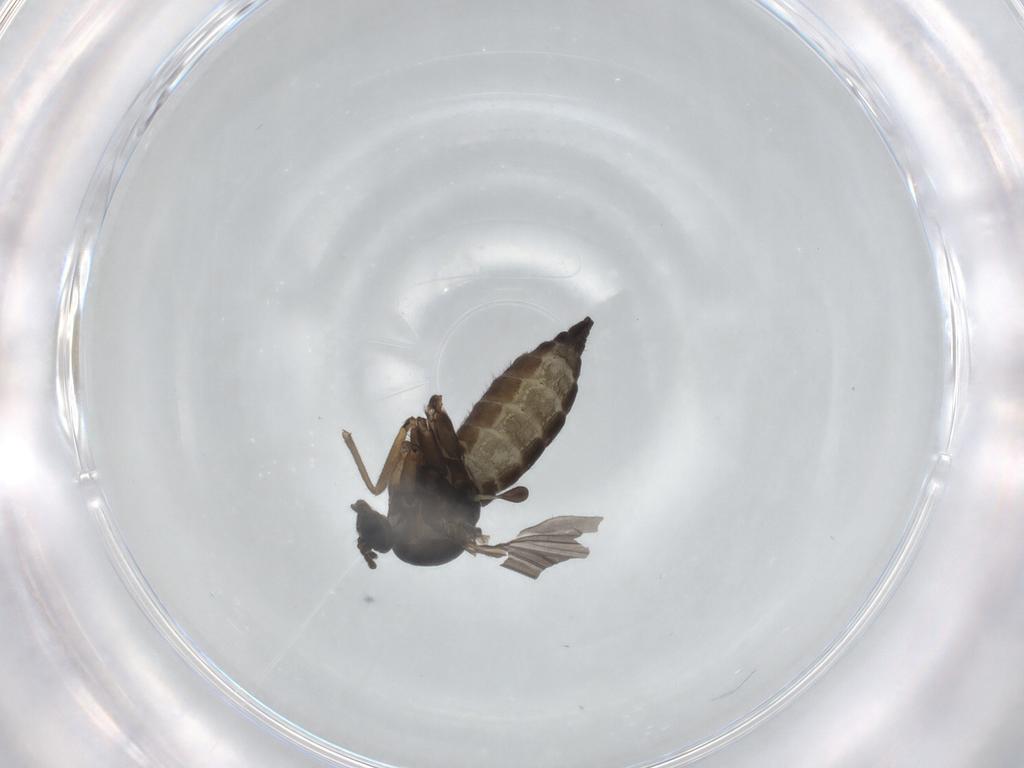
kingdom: Animalia
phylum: Arthropoda
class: Insecta
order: Diptera
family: Sciaridae
